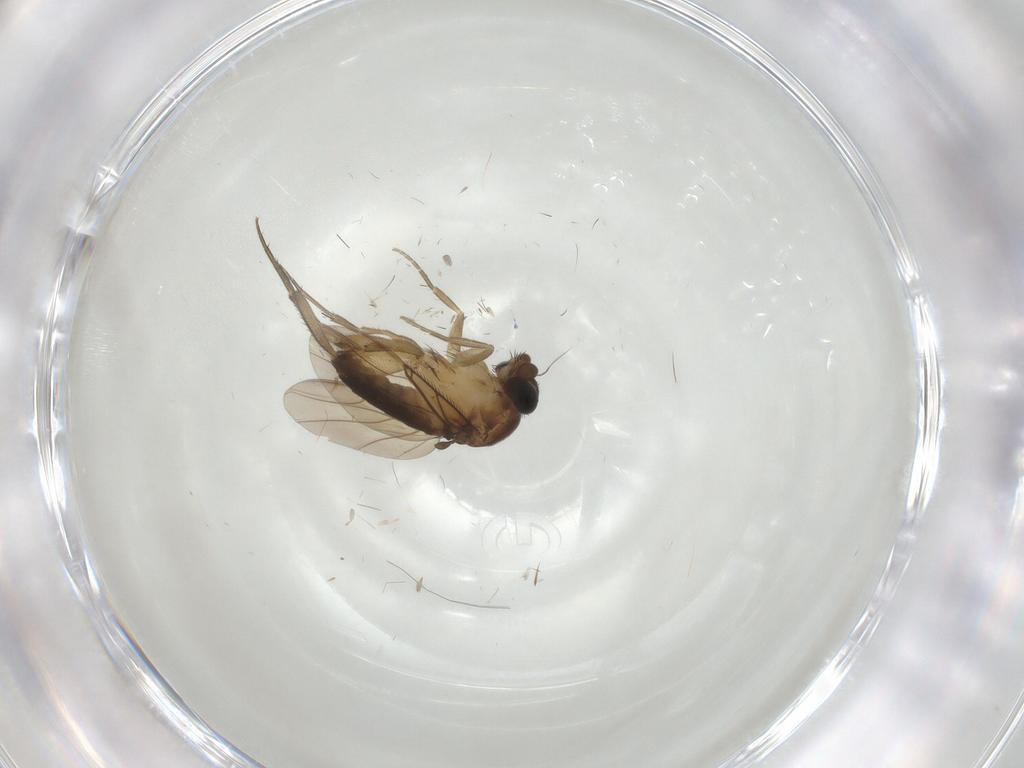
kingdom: Animalia
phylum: Arthropoda
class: Insecta
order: Diptera
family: Phoridae
